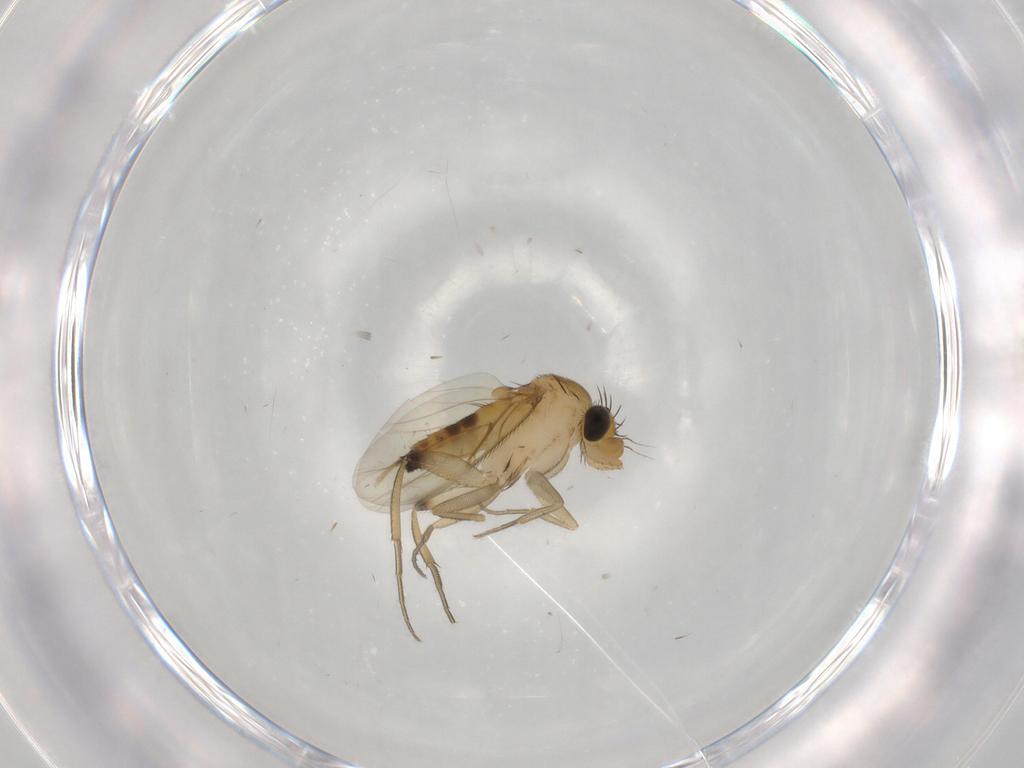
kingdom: Animalia
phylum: Arthropoda
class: Insecta
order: Diptera
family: Phoridae
